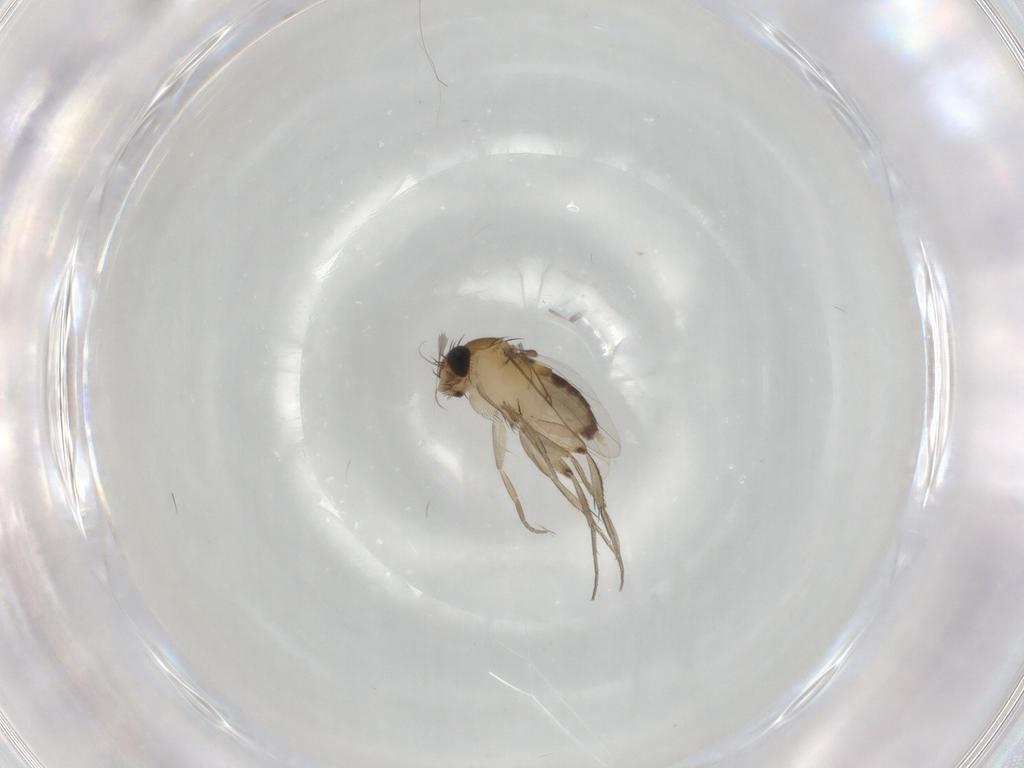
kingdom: Animalia
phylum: Arthropoda
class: Insecta
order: Diptera
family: Phoridae
